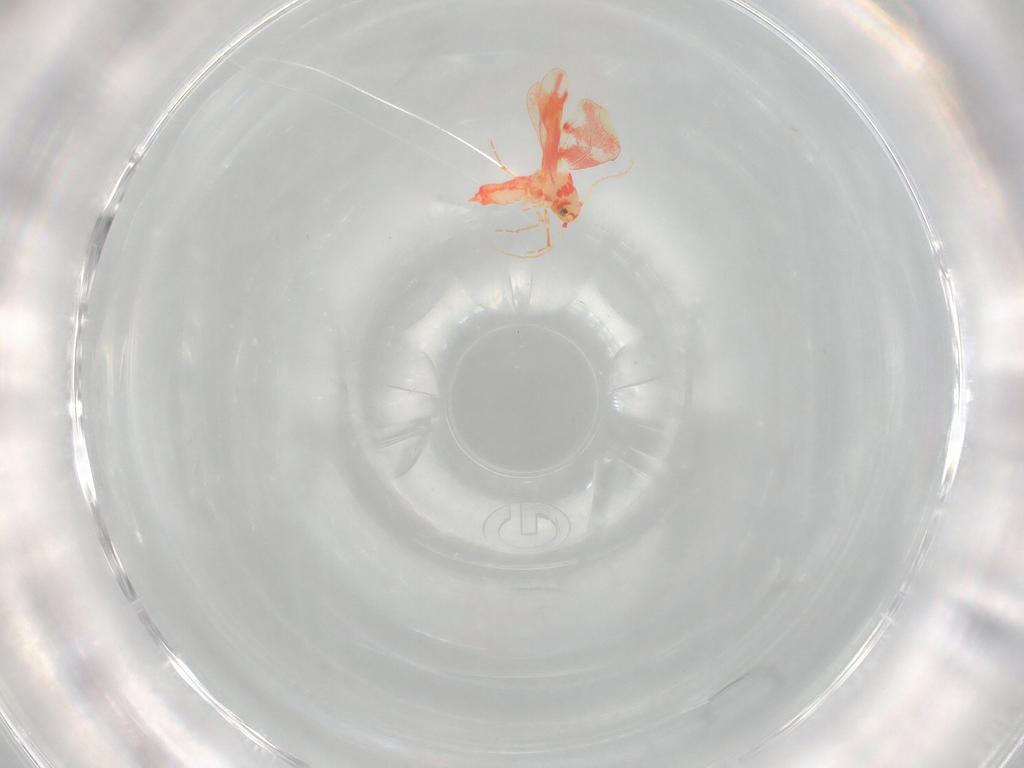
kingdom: Animalia
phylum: Arthropoda
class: Insecta
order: Hemiptera
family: Aleyrodidae
